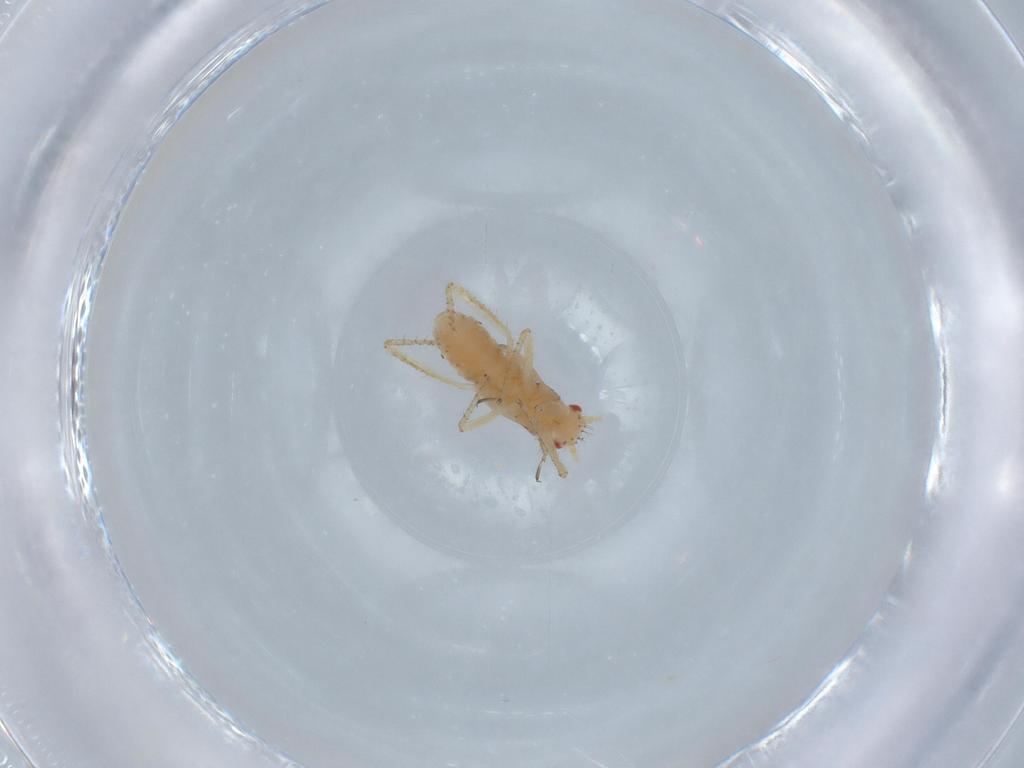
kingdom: Animalia
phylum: Arthropoda
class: Insecta
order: Hemiptera
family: Aphididae
